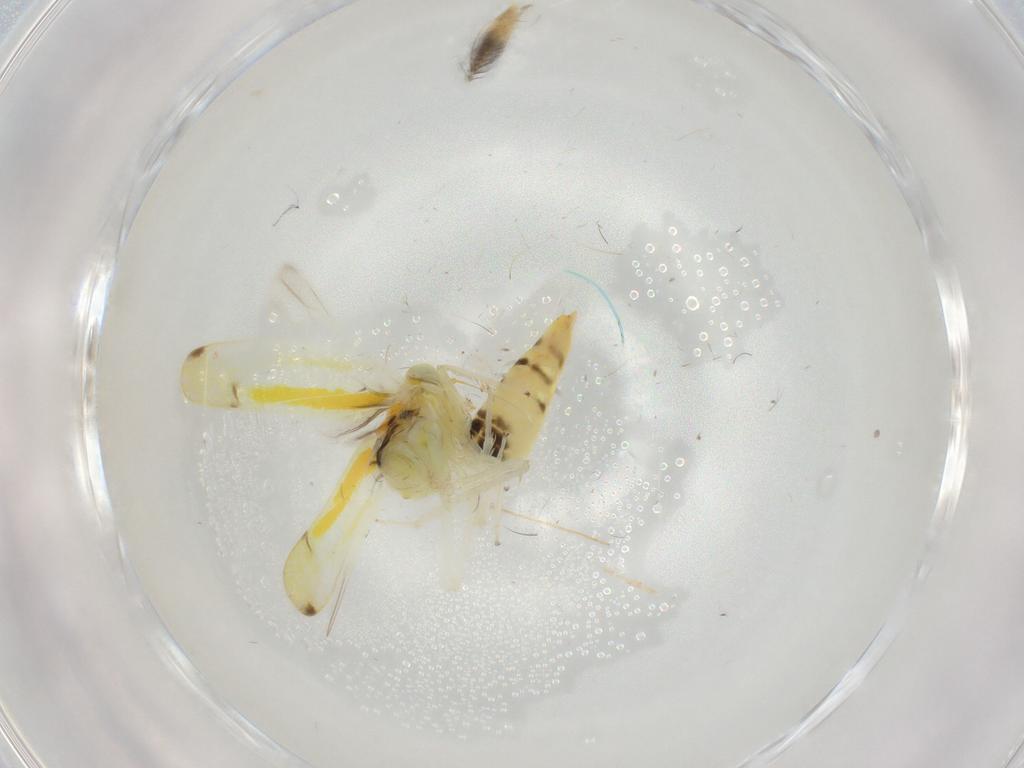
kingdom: Animalia
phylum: Arthropoda
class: Insecta
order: Hemiptera
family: Cicadellidae
